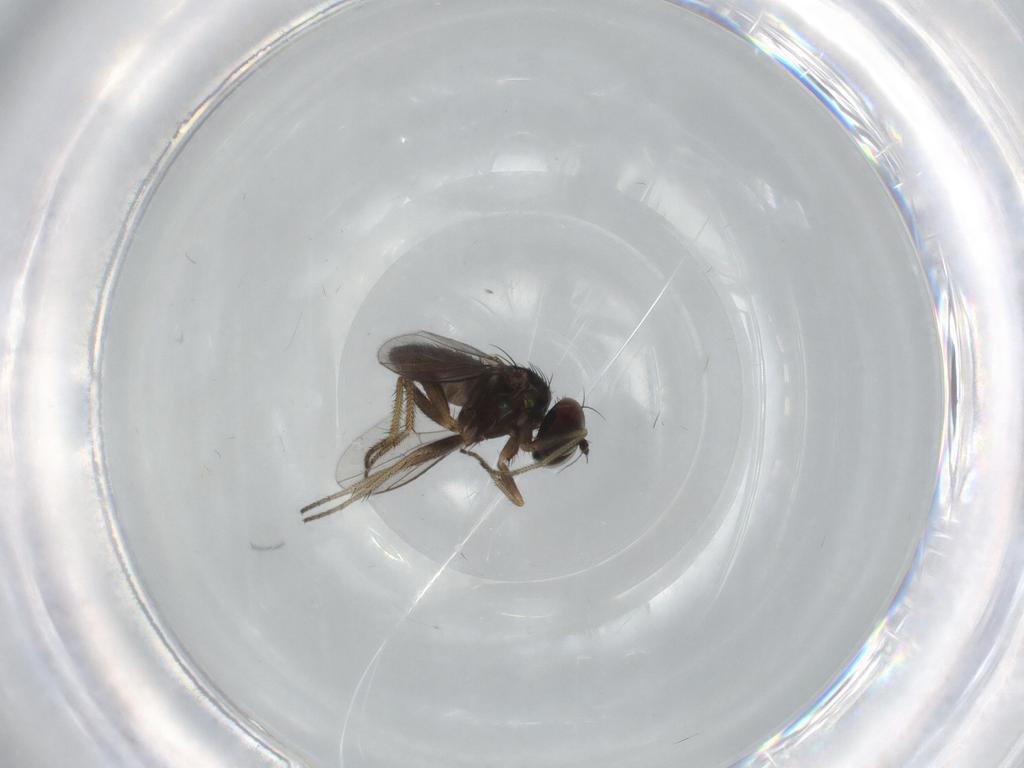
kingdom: Animalia
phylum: Arthropoda
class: Insecta
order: Diptera
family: Dolichopodidae
